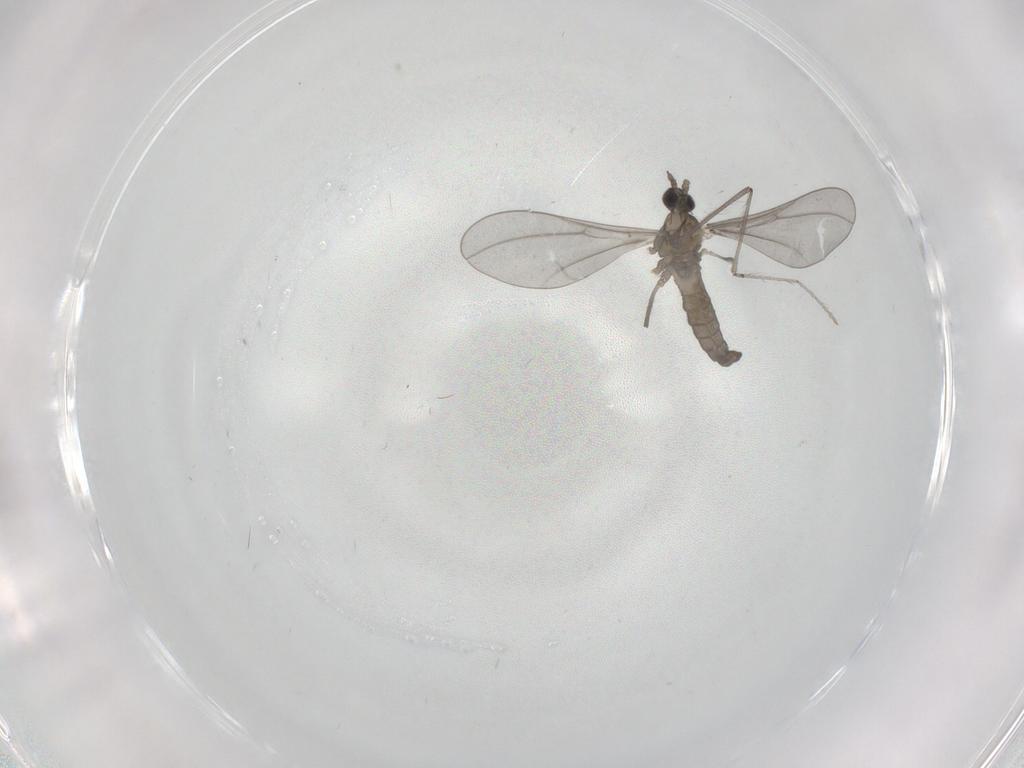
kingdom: Animalia
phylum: Arthropoda
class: Insecta
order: Diptera
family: Cecidomyiidae
